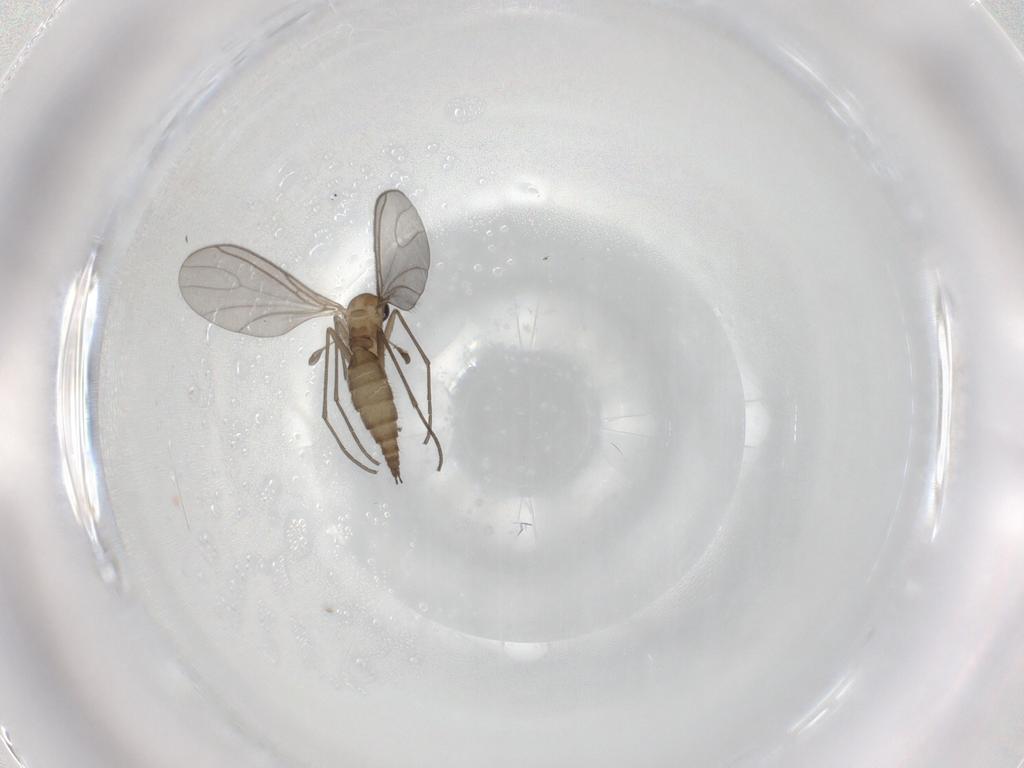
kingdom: Animalia
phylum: Arthropoda
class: Insecta
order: Diptera
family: Sciaridae
